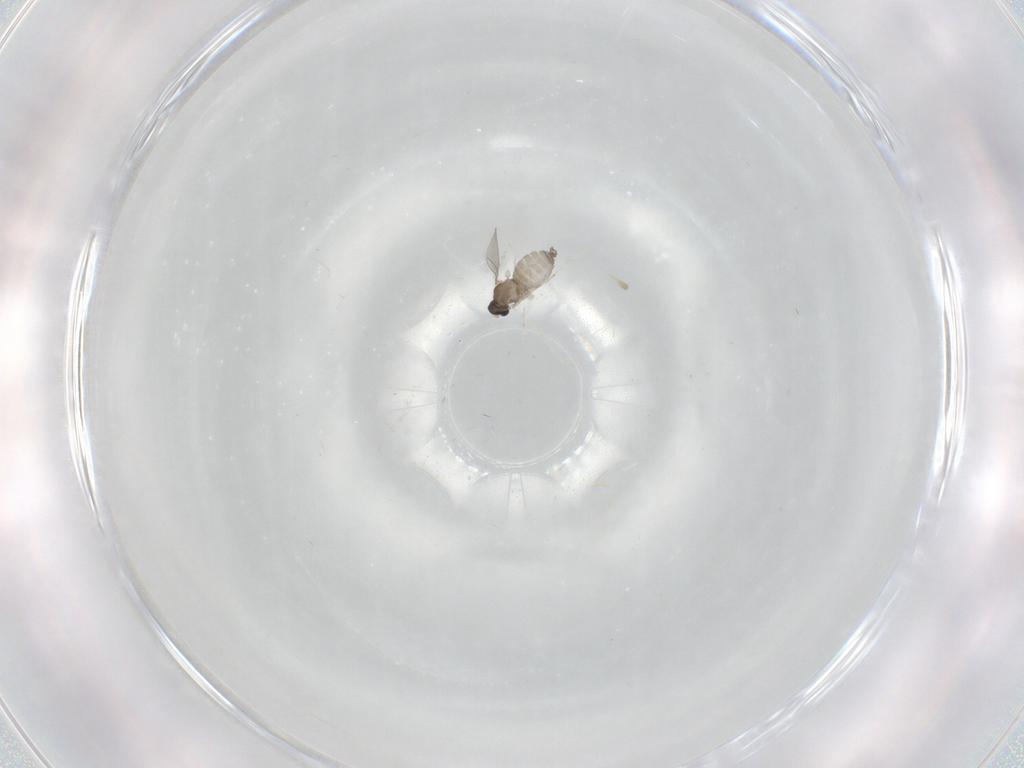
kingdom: Animalia
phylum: Arthropoda
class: Insecta
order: Diptera
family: Cecidomyiidae
